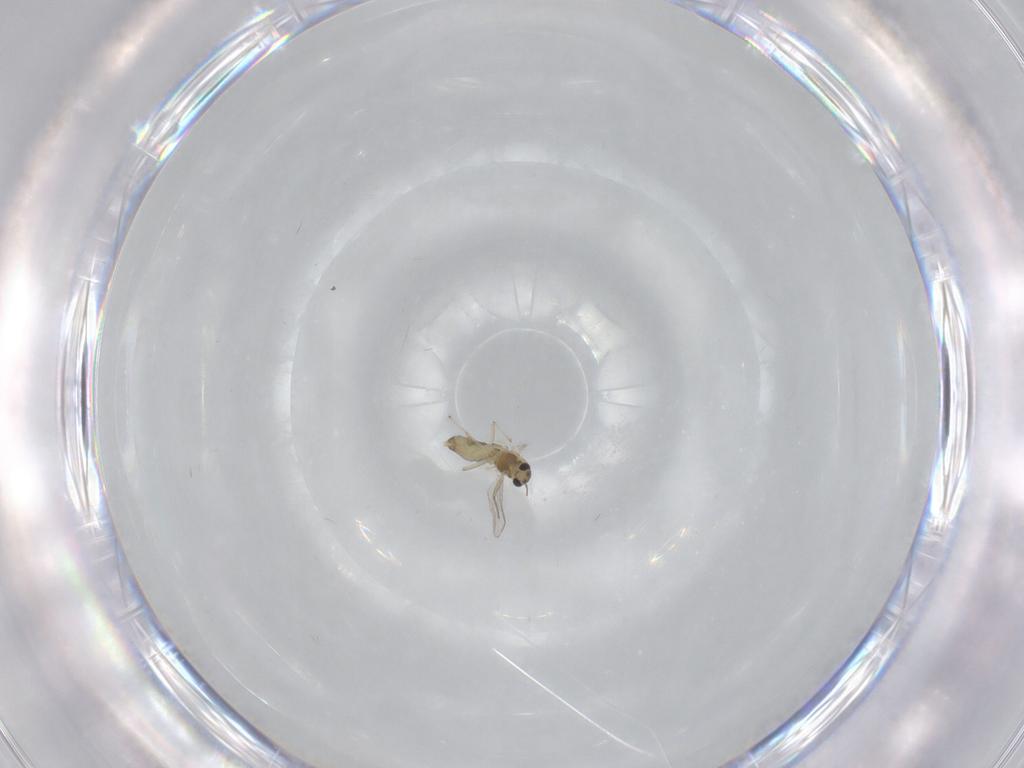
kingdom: Animalia
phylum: Arthropoda
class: Insecta
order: Diptera
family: Chironomidae
